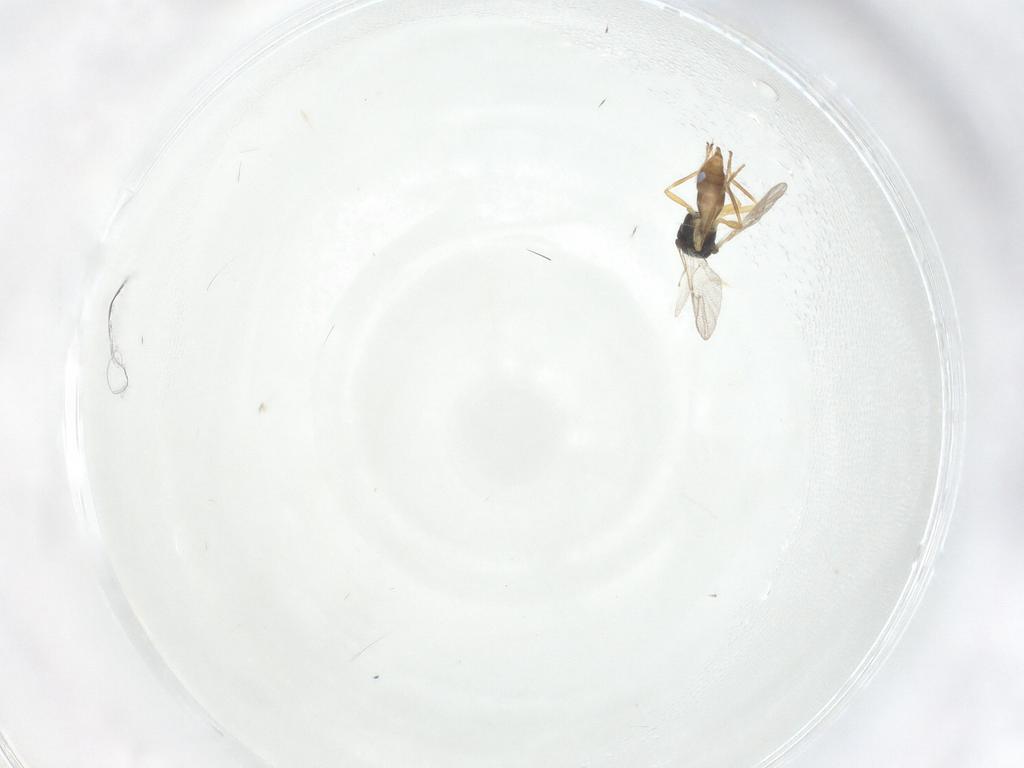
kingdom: Animalia
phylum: Arthropoda
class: Insecta
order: Hymenoptera
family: Braconidae
